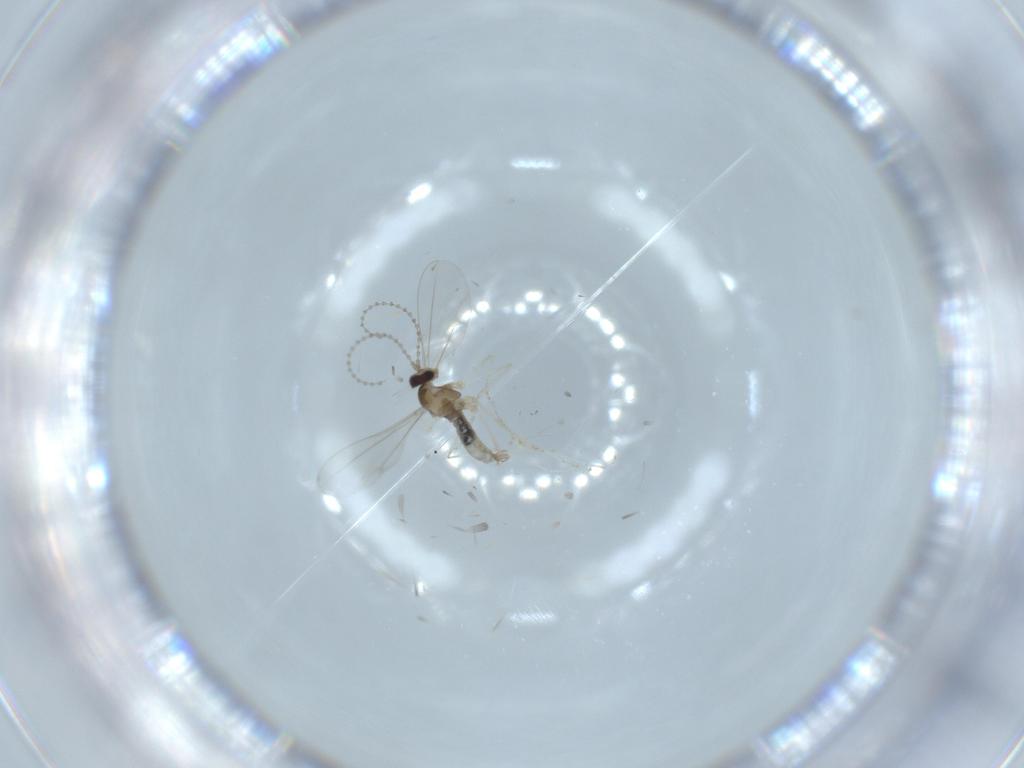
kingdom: Animalia
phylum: Arthropoda
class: Insecta
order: Diptera
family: Cecidomyiidae
